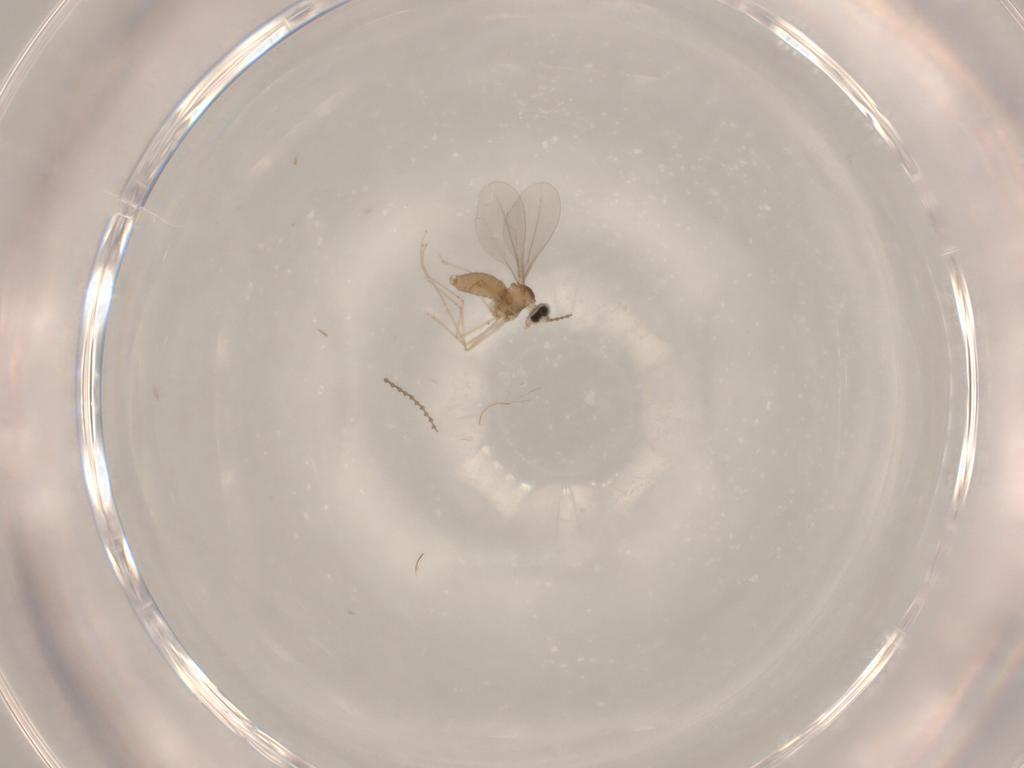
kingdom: Animalia
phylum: Arthropoda
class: Insecta
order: Diptera
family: Cecidomyiidae
